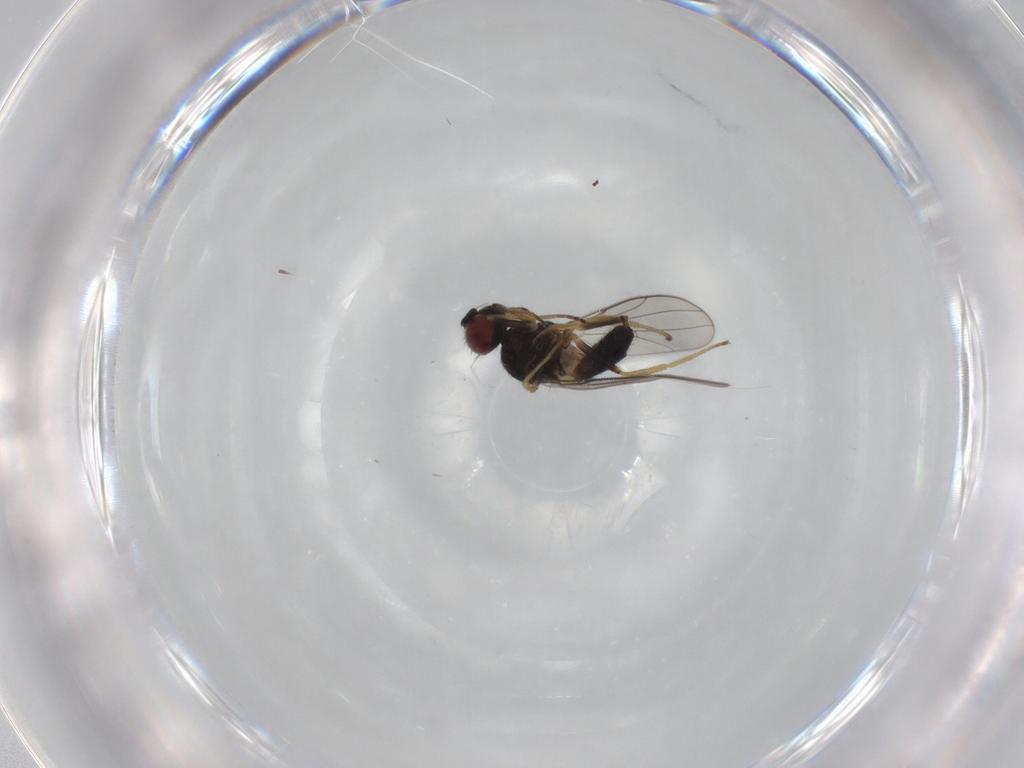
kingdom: Animalia
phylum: Arthropoda
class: Insecta
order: Diptera
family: Chloropidae
